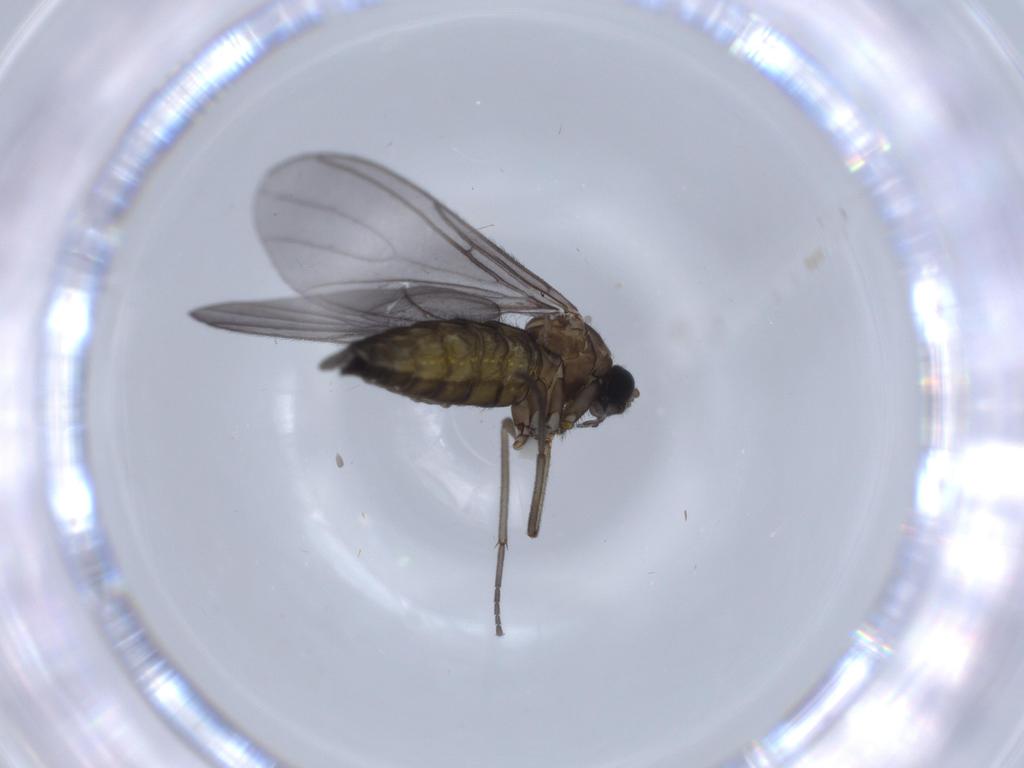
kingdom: Animalia
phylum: Arthropoda
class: Insecta
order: Diptera
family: Sciaridae
